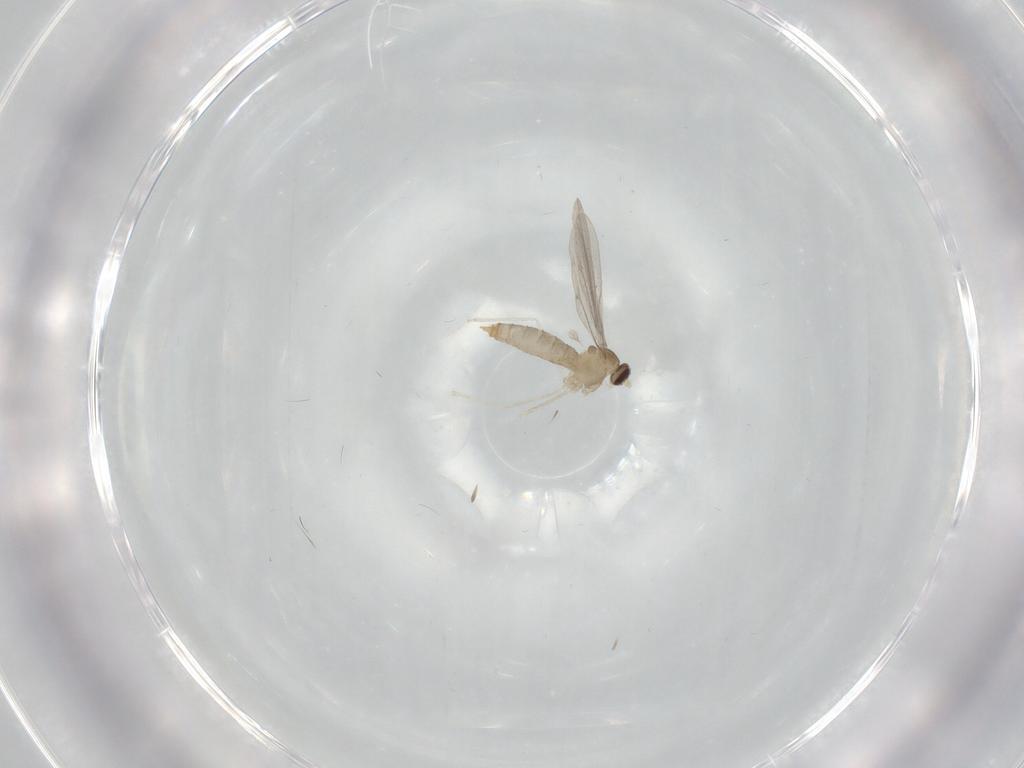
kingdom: Animalia
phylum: Arthropoda
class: Insecta
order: Diptera
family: Cecidomyiidae
